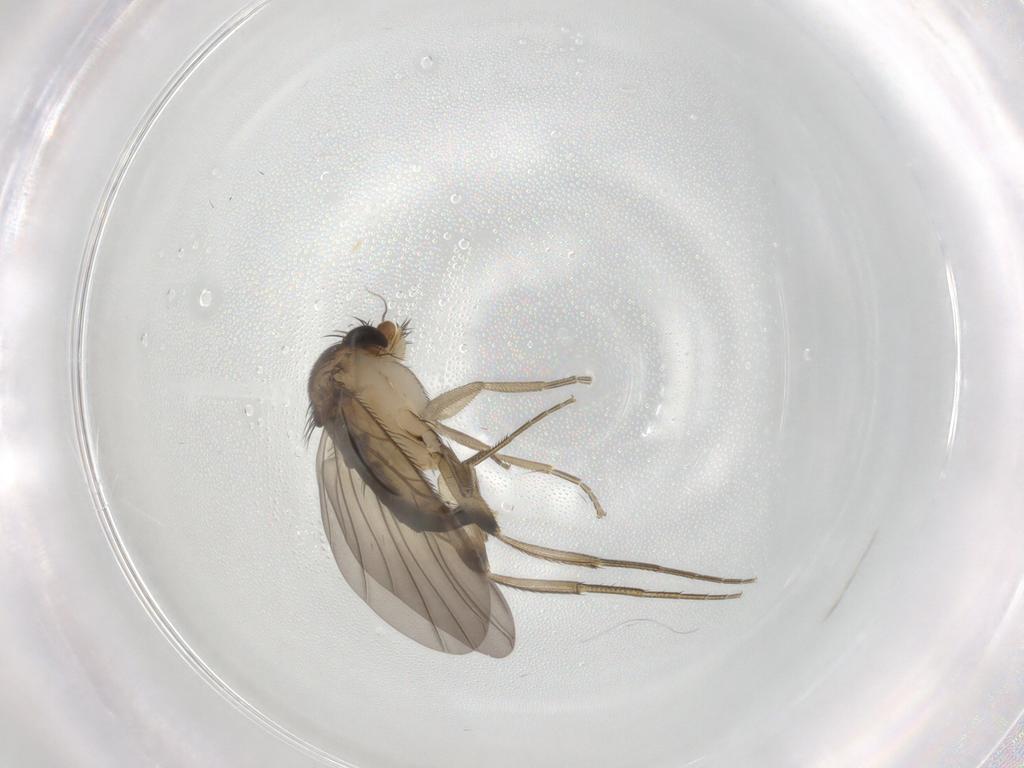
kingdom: Animalia
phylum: Arthropoda
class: Insecta
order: Diptera
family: Phoridae
